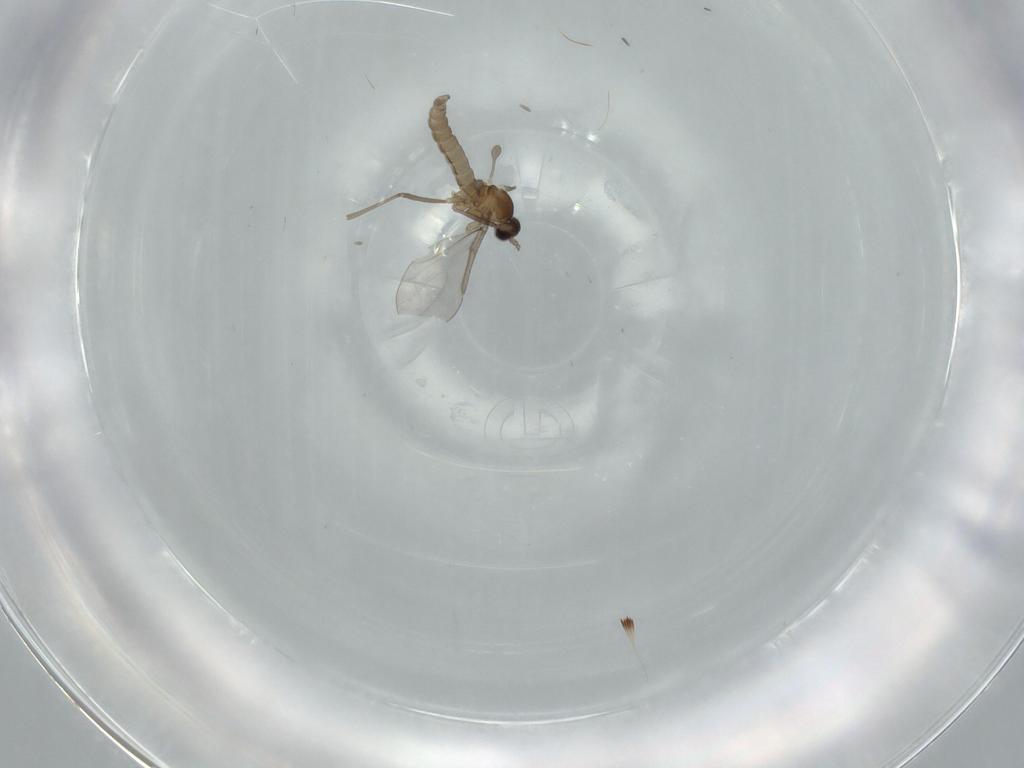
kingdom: Animalia
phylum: Arthropoda
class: Insecta
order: Diptera
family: Cecidomyiidae
